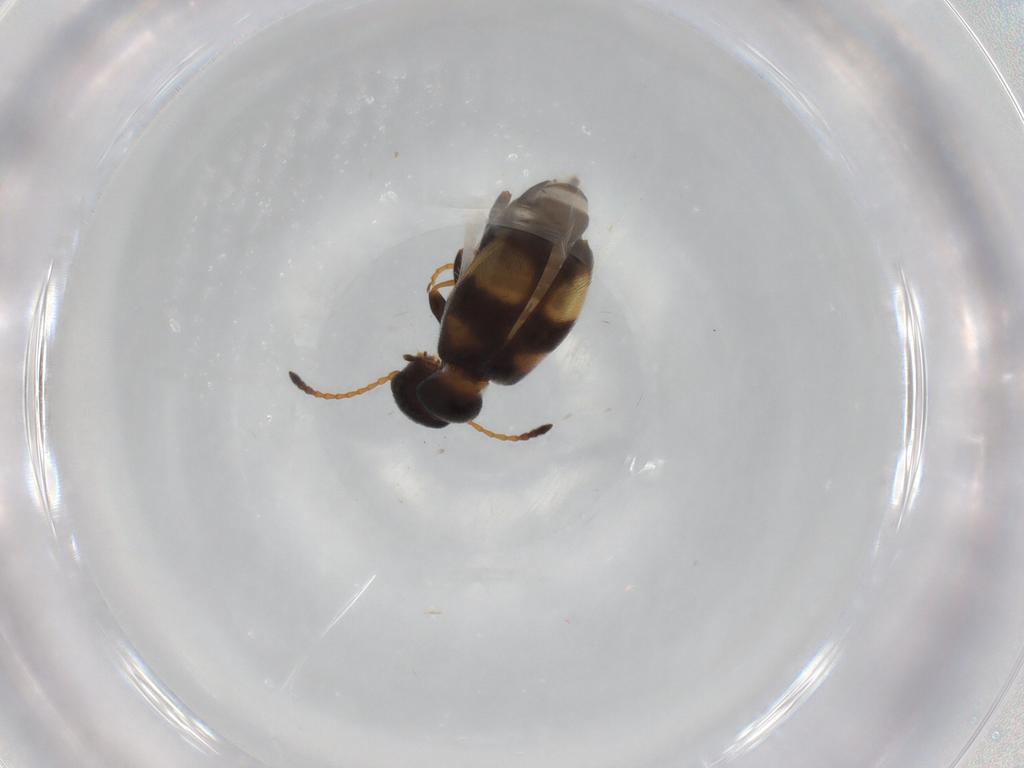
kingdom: Animalia
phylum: Arthropoda
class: Insecta
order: Coleoptera
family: Anthicidae
